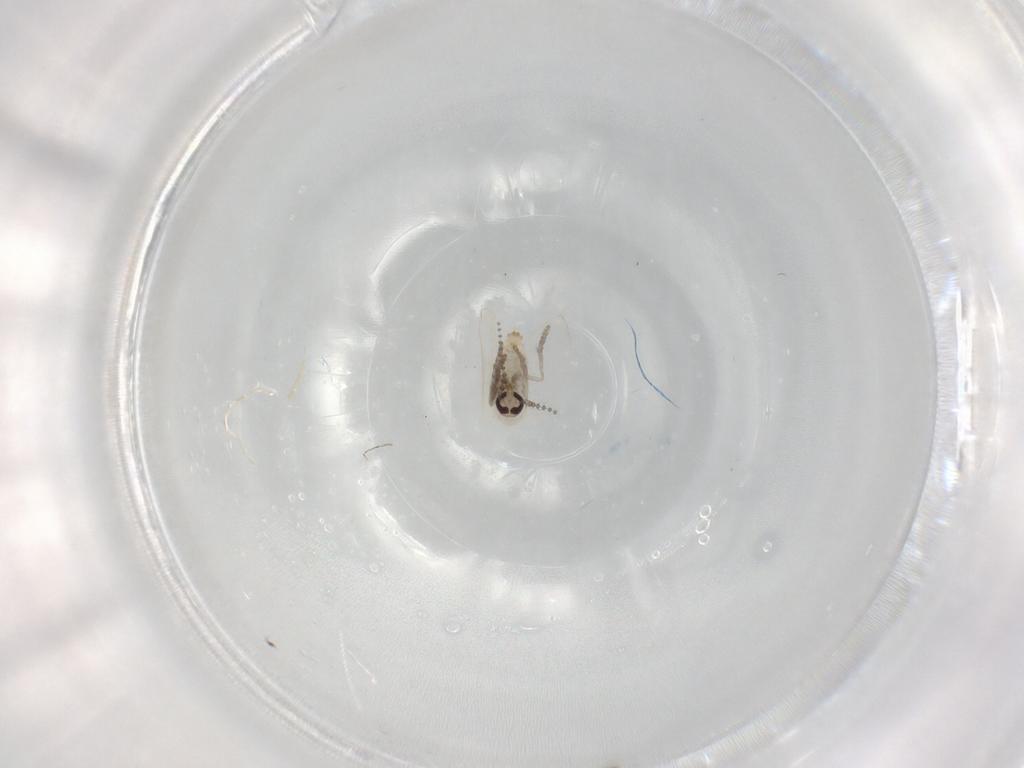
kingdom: Animalia
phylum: Arthropoda
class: Insecta
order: Diptera
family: Psychodidae
